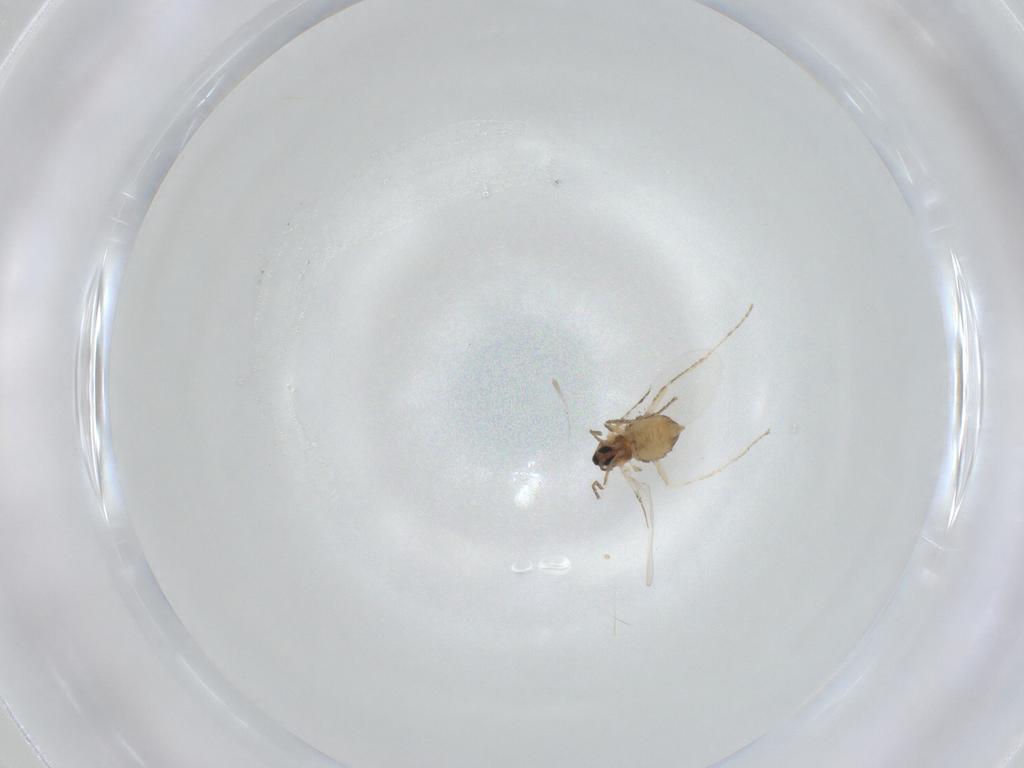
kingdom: Animalia
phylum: Arthropoda
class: Insecta
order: Diptera
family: Cecidomyiidae
